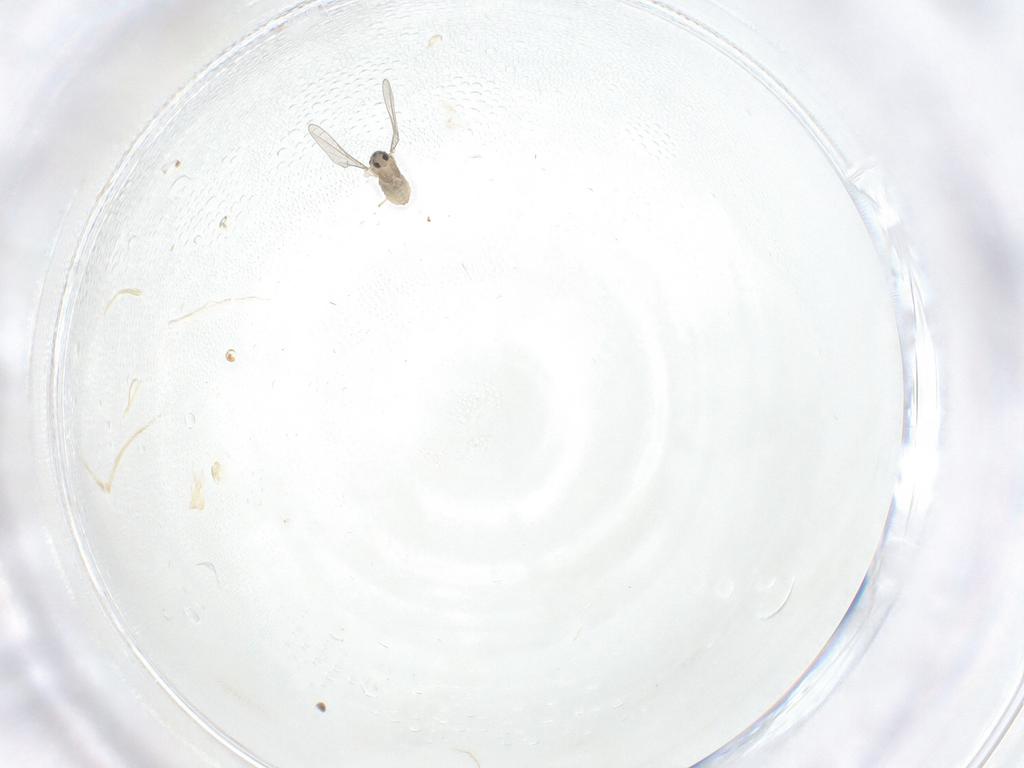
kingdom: Animalia
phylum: Arthropoda
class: Insecta
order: Diptera
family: Limoniidae
